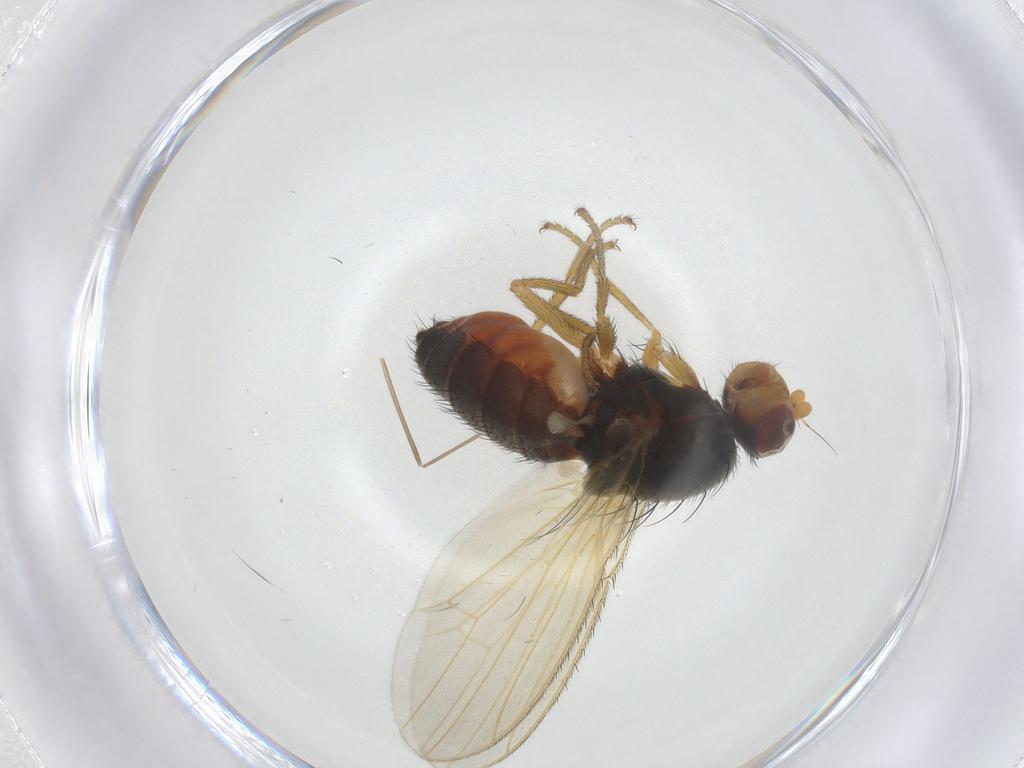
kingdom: Animalia
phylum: Arthropoda
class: Insecta
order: Diptera
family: Heleomyzidae
